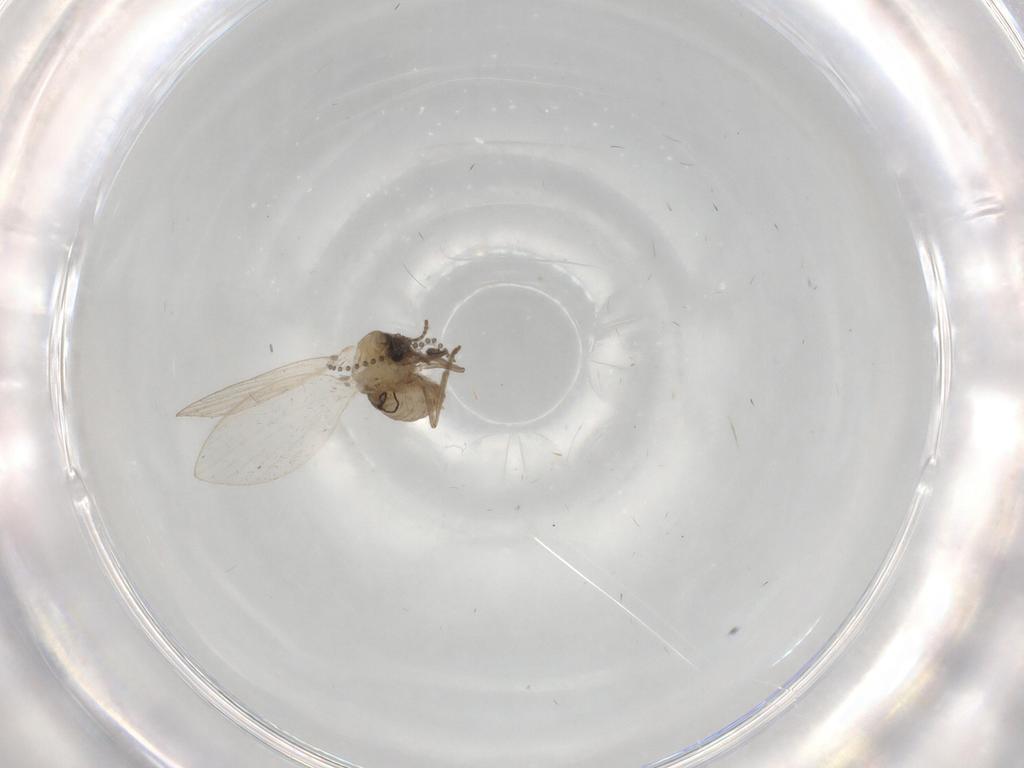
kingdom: Animalia
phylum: Arthropoda
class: Insecta
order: Diptera
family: Psychodidae
